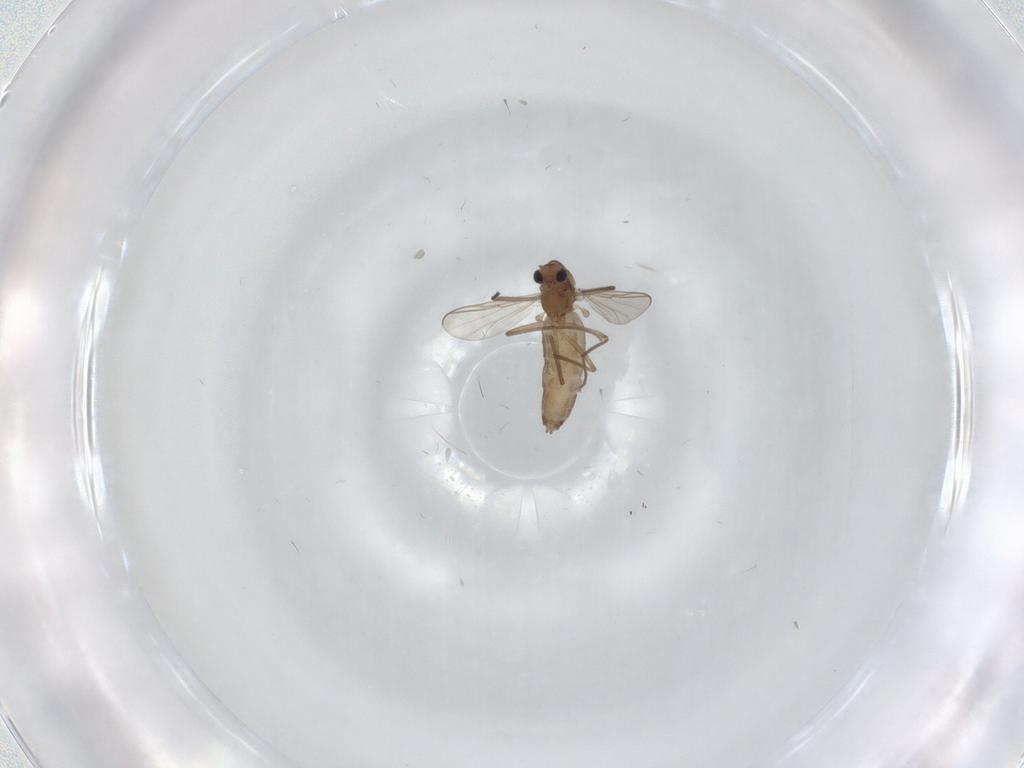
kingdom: Animalia
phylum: Arthropoda
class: Insecta
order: Diptera
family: Chironomidae
